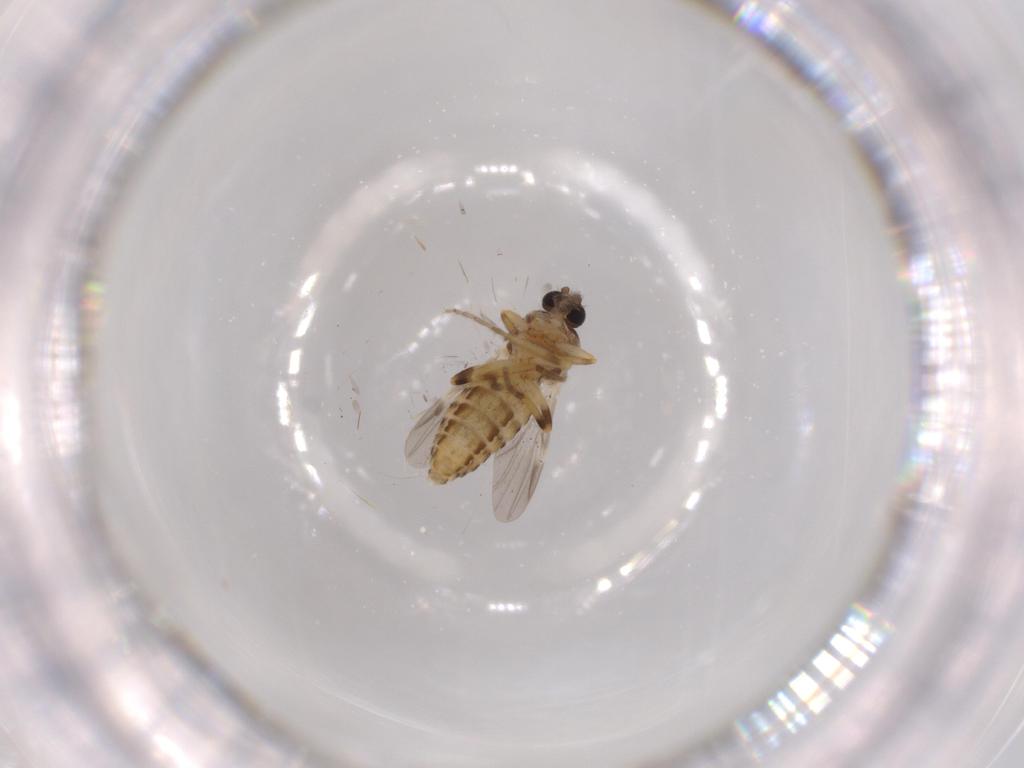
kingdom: Animalia
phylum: Arthropoda
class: Insecta
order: Diptera
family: Ceratopogonidae
